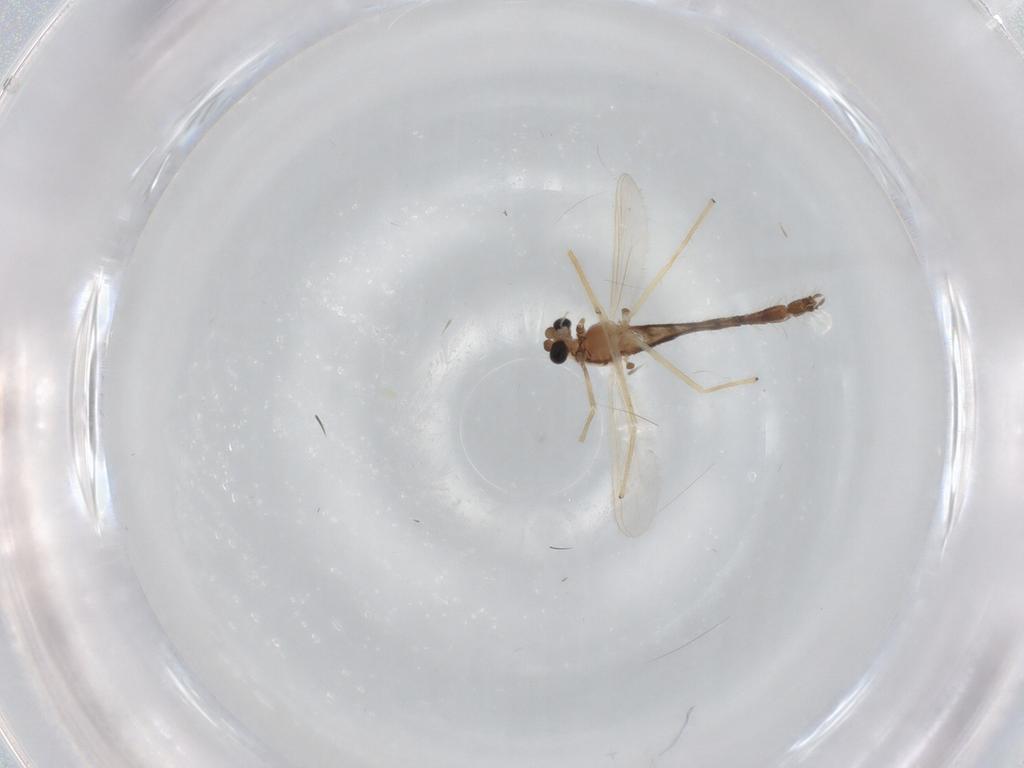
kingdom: Animalia
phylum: Arthropoda
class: Insecta
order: Diptera
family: Chironomidae
